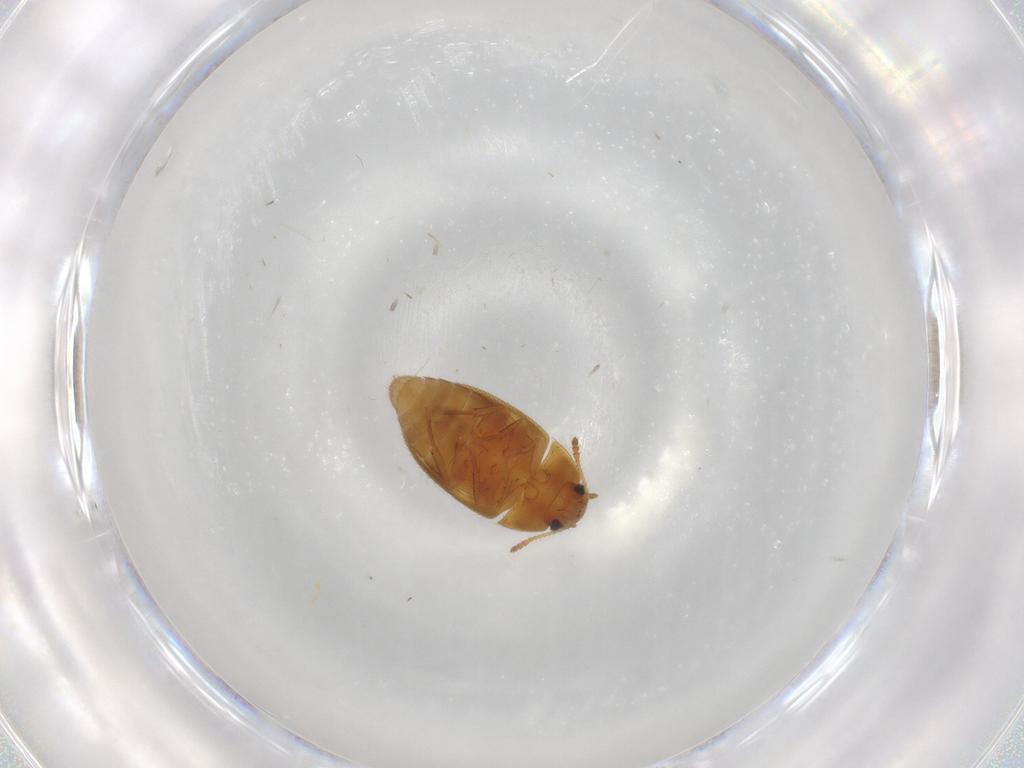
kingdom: Animalia
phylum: Arthropoda
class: Insecta
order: Coleoptera
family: Mycetophagidae
